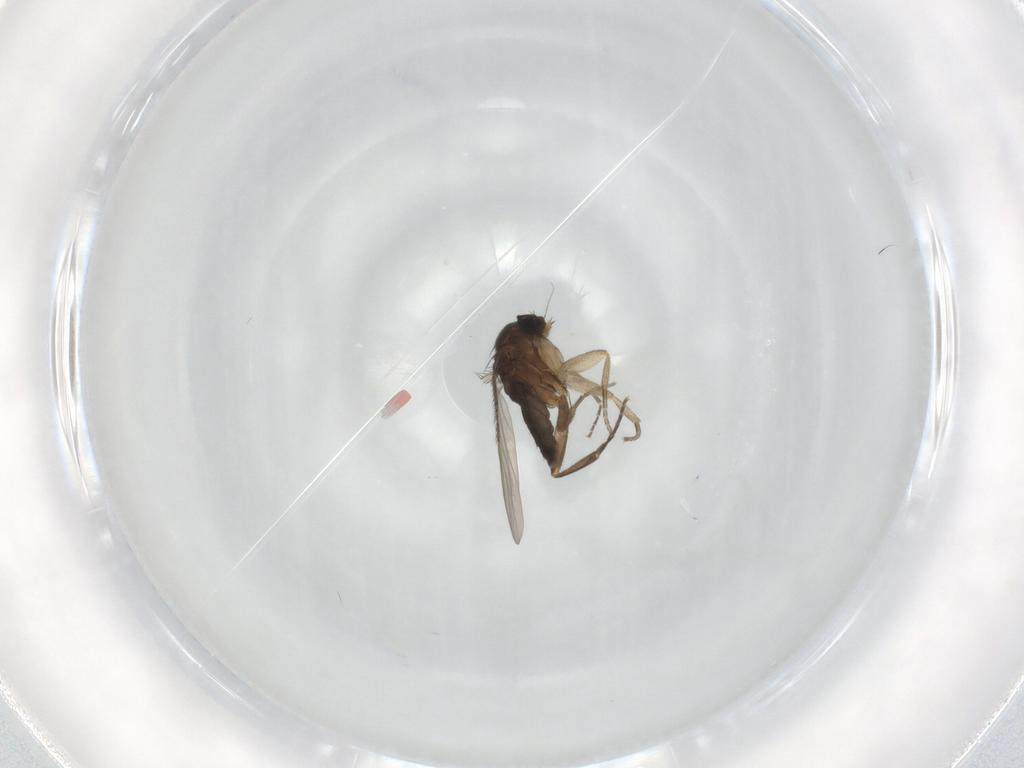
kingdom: Animalia
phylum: Arthropoda
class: Insecta
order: Diptera
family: Phoridae
